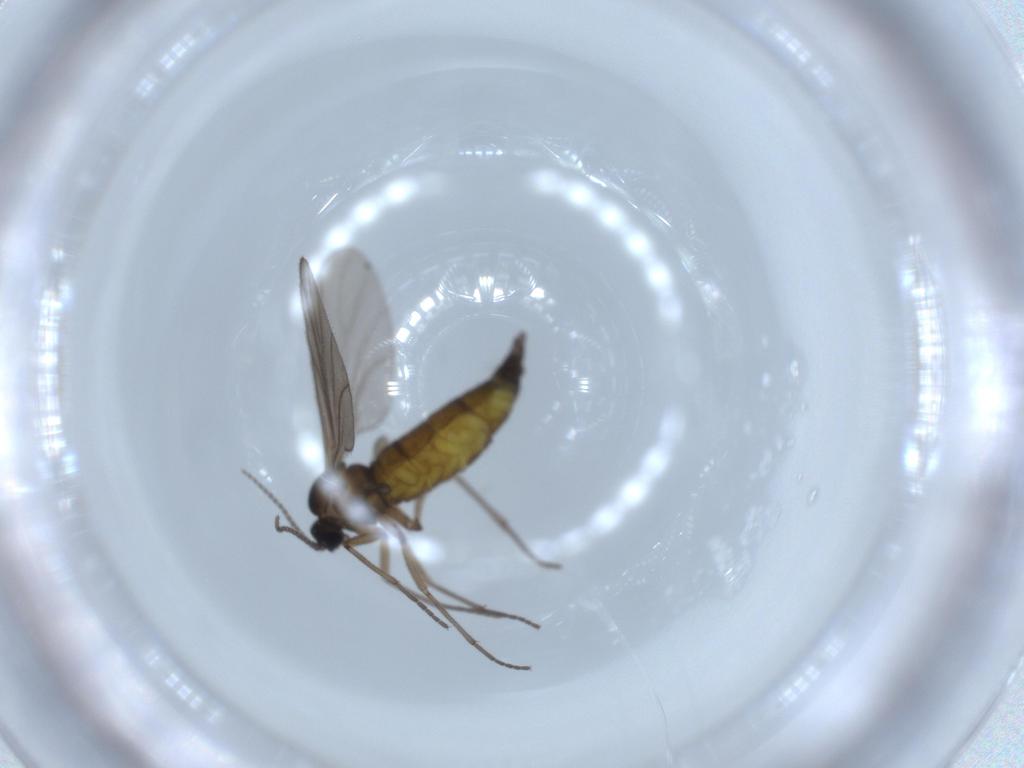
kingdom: Animalia
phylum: Arthropoda
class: Insecta
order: Diptera
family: Sciaridae
